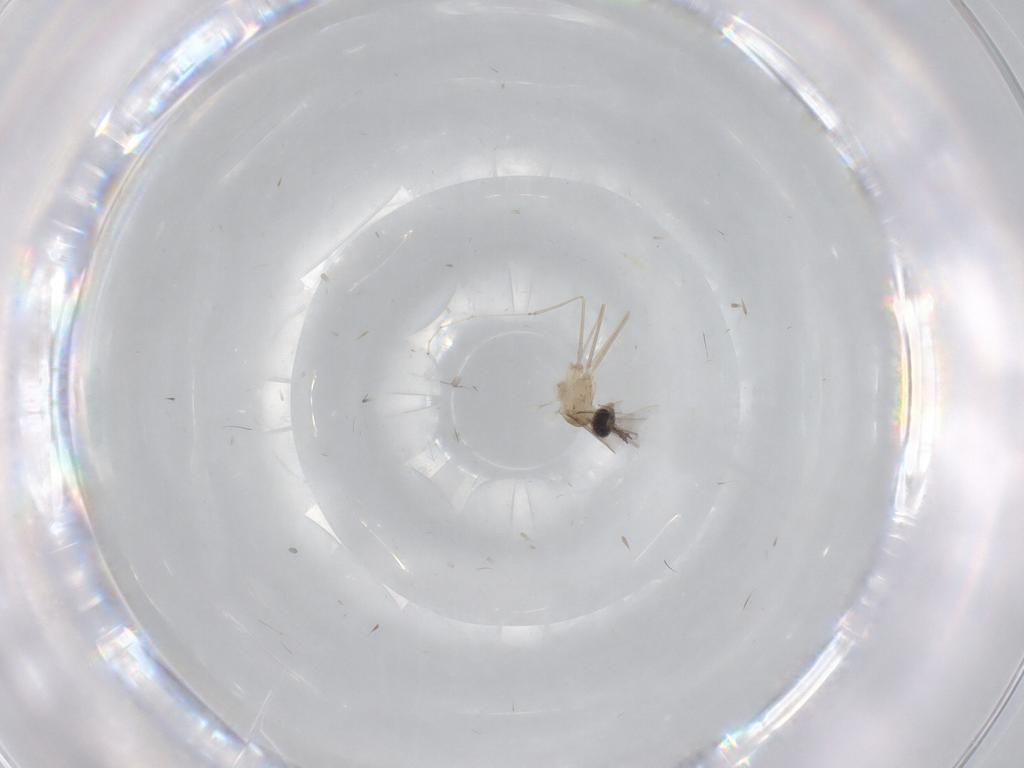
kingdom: Animalia
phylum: Arthropoda
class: Insecta
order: Diptera
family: Cecidomyiidae
